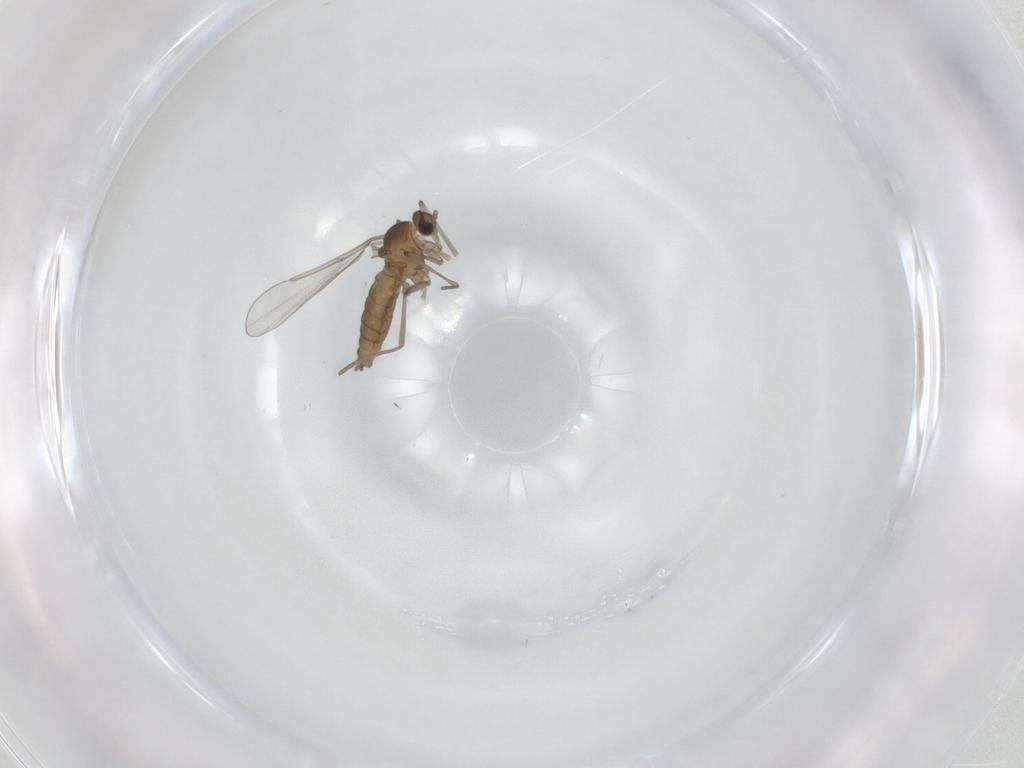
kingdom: Animalia
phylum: Arthropoda
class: Insecta
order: Diptera
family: Cecidomyiidae
